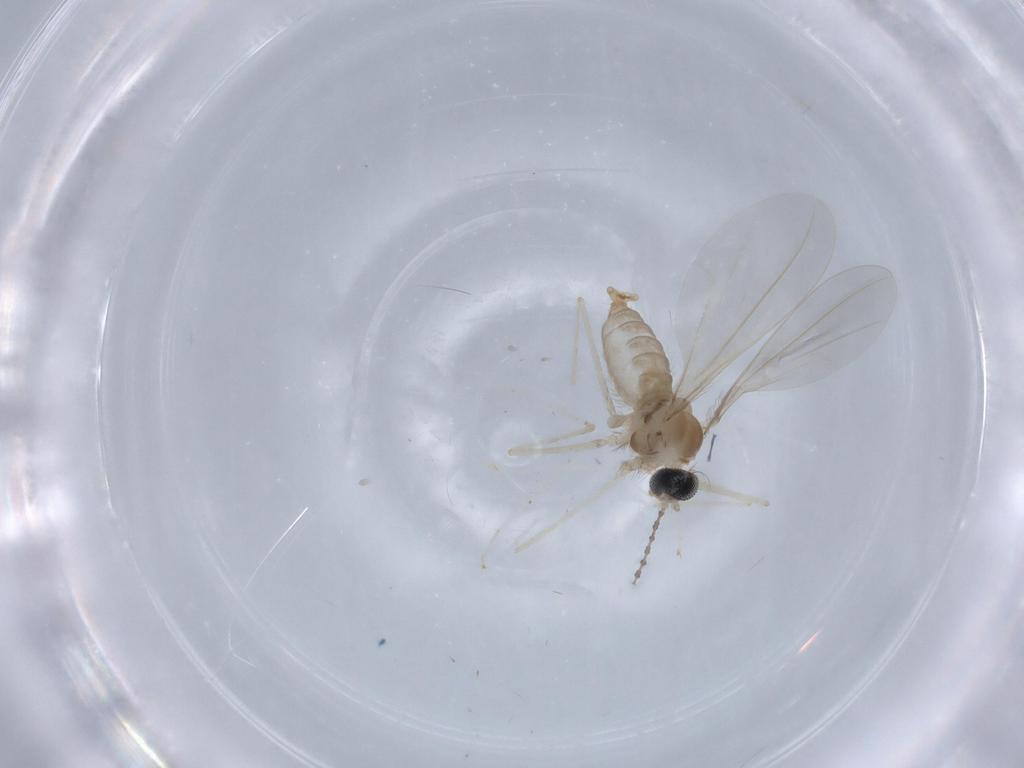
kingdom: Animalia
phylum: Arthropoda
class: Insecta
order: Diptera
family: Cecidomyiidae
